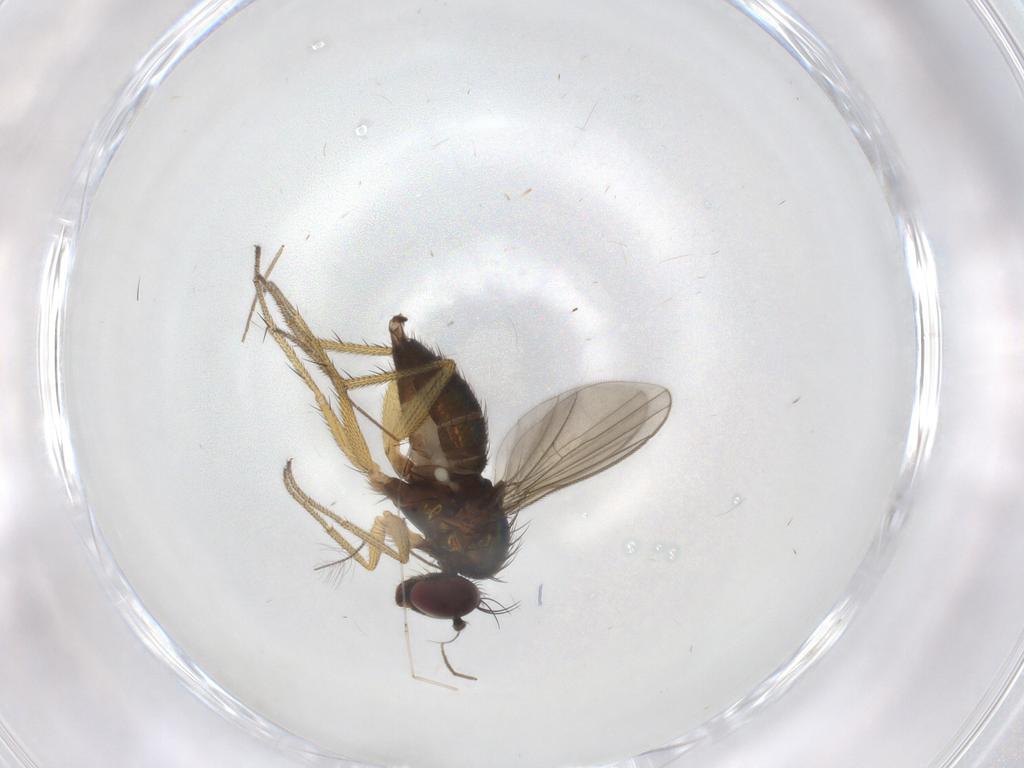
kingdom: Animalia
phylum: Arthropoda
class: Insecta
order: Diptera
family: Cecidomyiidae
